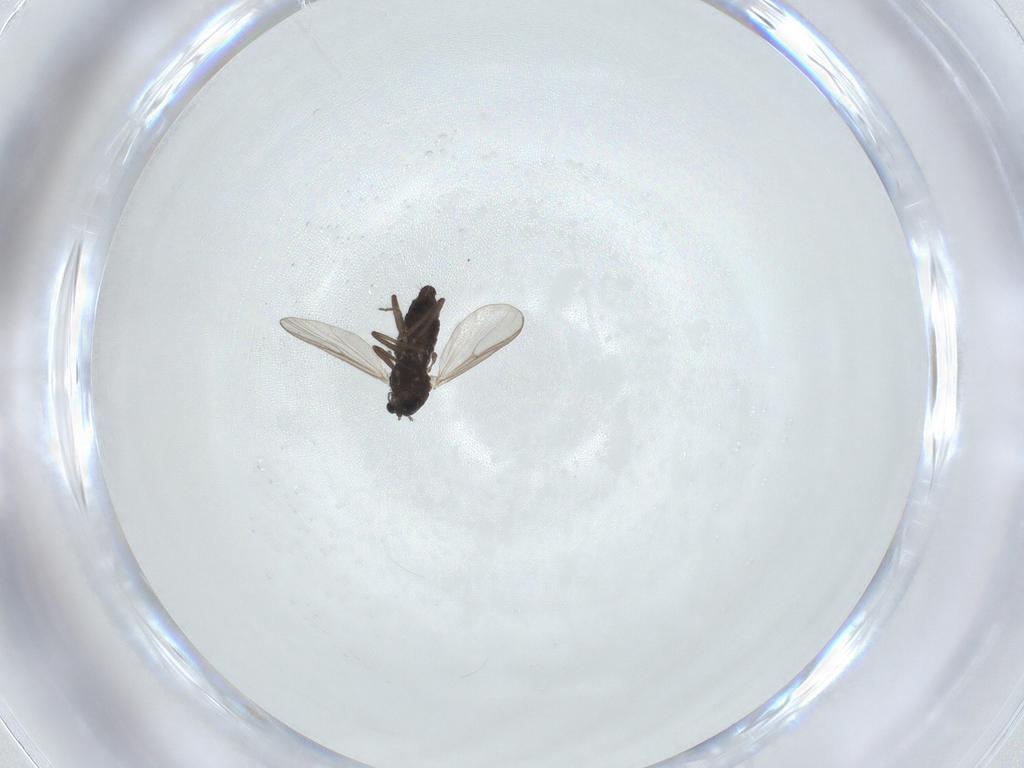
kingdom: Animalia
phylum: Arthropoda
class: Insecta
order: Diptera
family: Chironomidae
